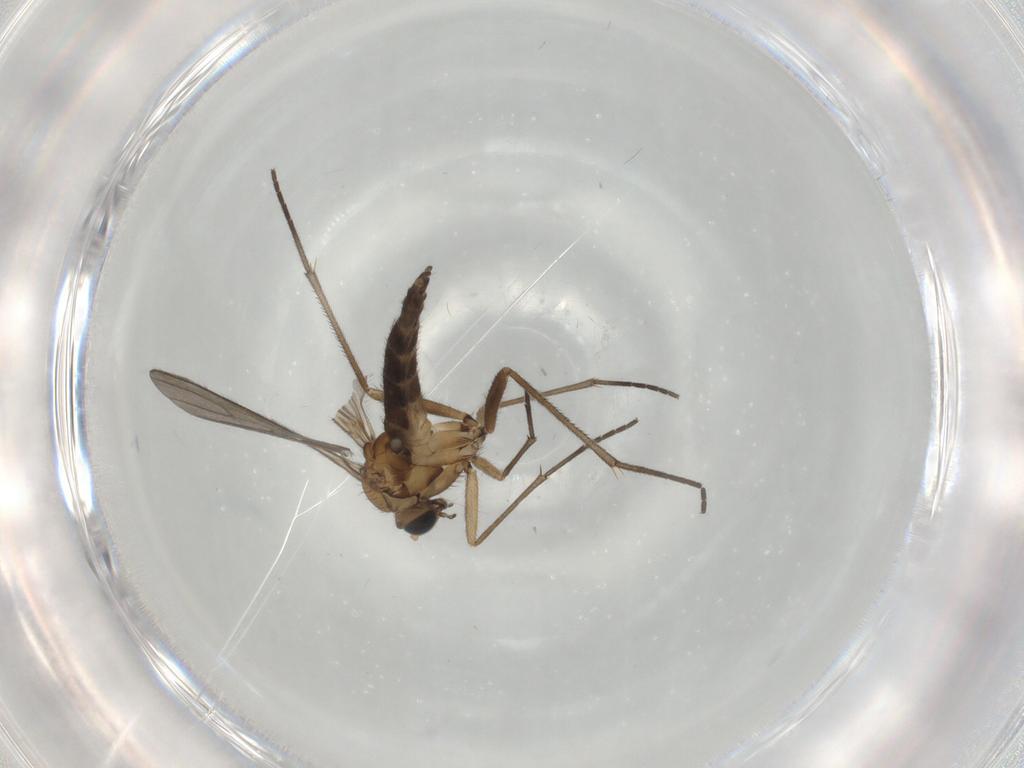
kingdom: Animalia
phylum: Arthropoda
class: Insecta
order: Diptera
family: Sciaridae
